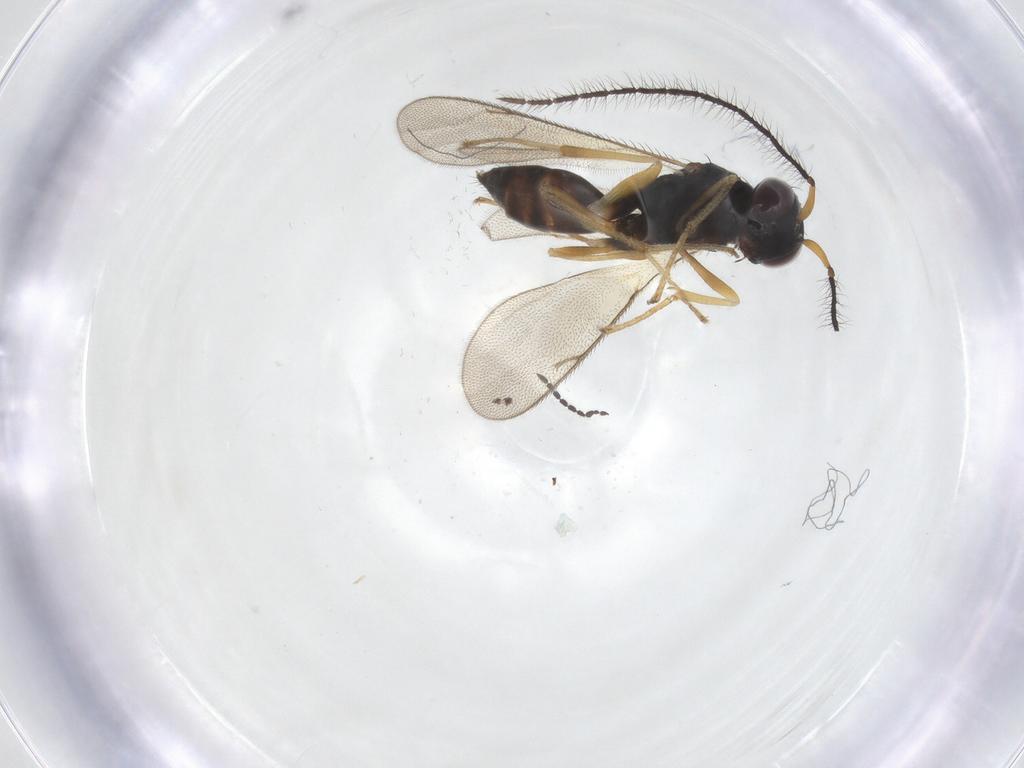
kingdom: Animalia
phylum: Arthropoda
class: Insecta
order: Hymenoptera
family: Diparidae
